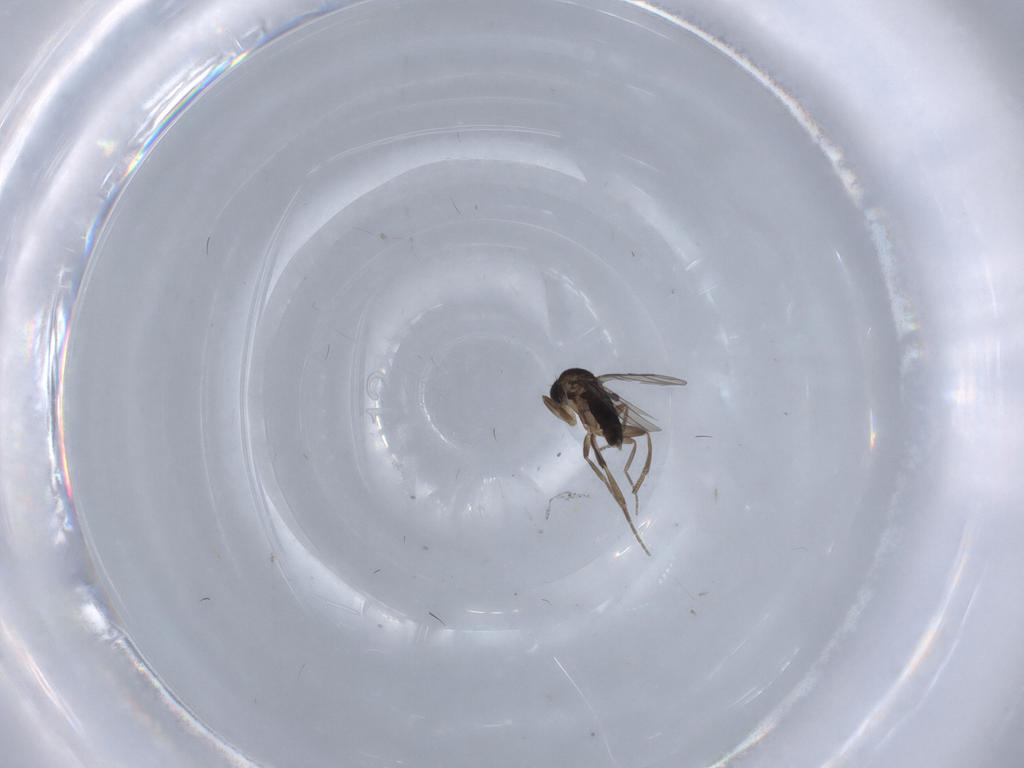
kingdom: Animalia
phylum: Arthropoda
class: Insecta
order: Diptera
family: Phoridae
